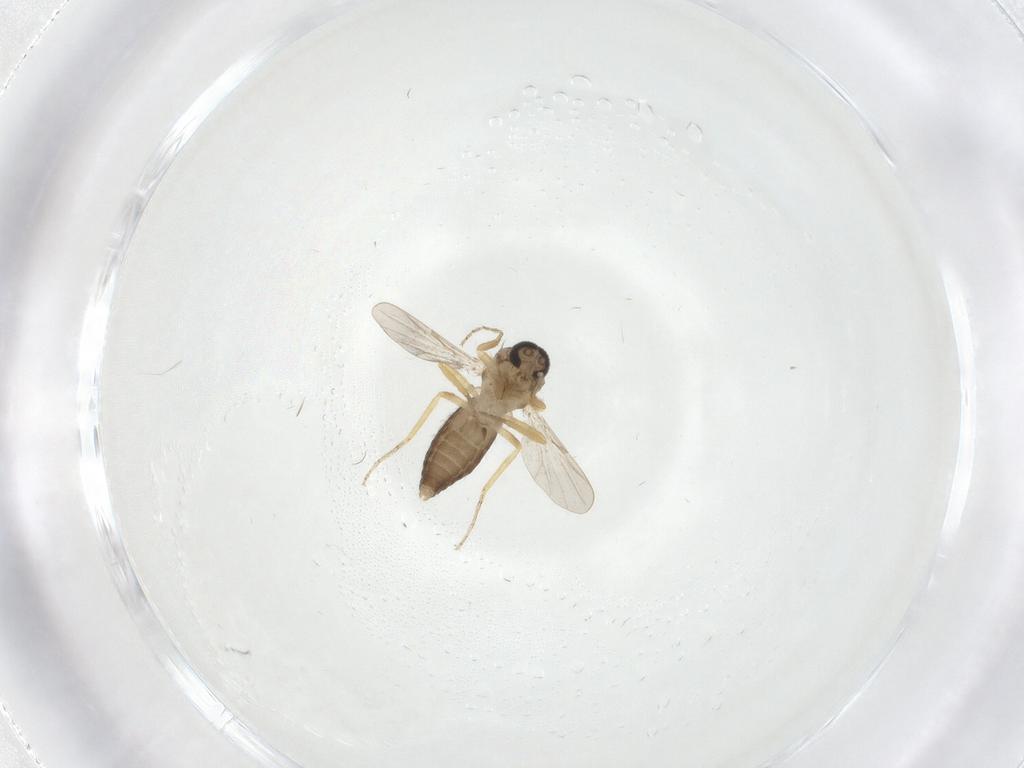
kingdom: Animalia
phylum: Arthropoda
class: Insecta
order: Diptera
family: Ceratopogonidae
